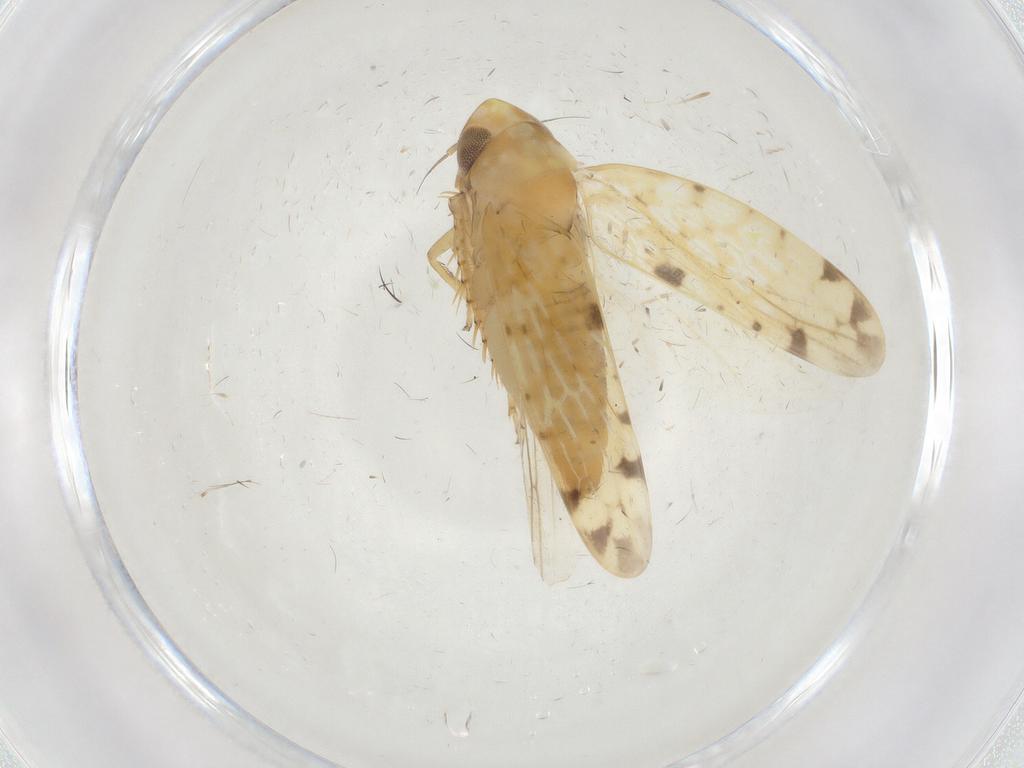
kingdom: Animalia
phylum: Arthropoda
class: Insecta
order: Hemiptera
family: Cicadellidae
